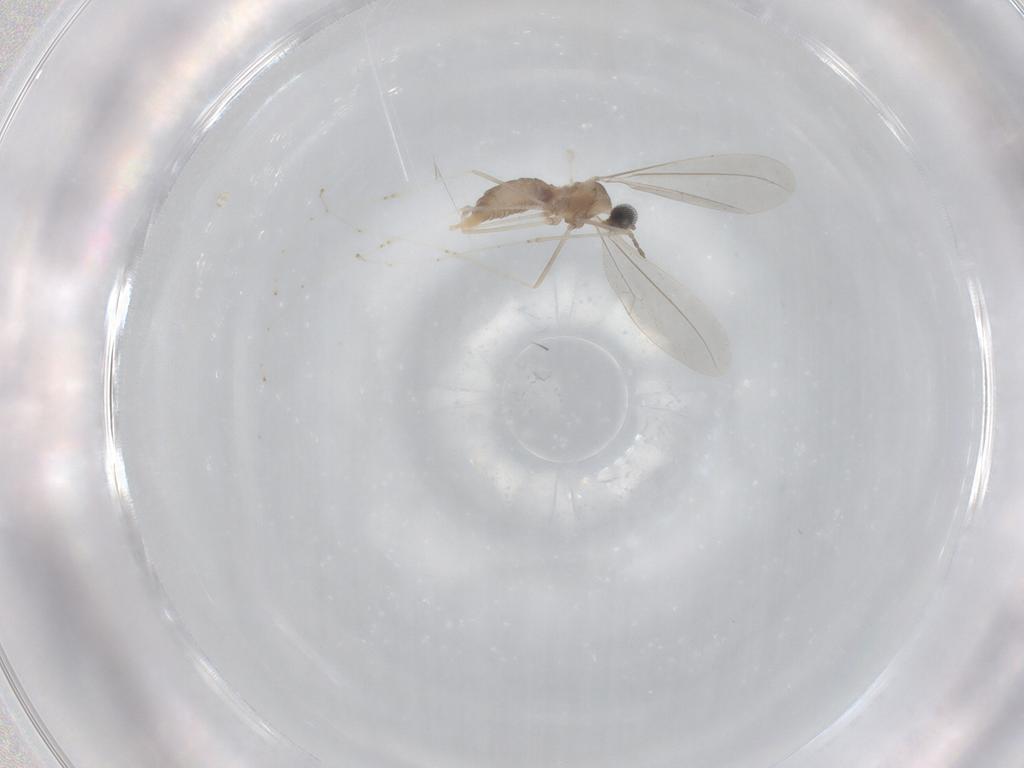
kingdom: Animalia
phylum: Arthropoda
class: Insecta
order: Diptera
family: Cecidomyiidae
